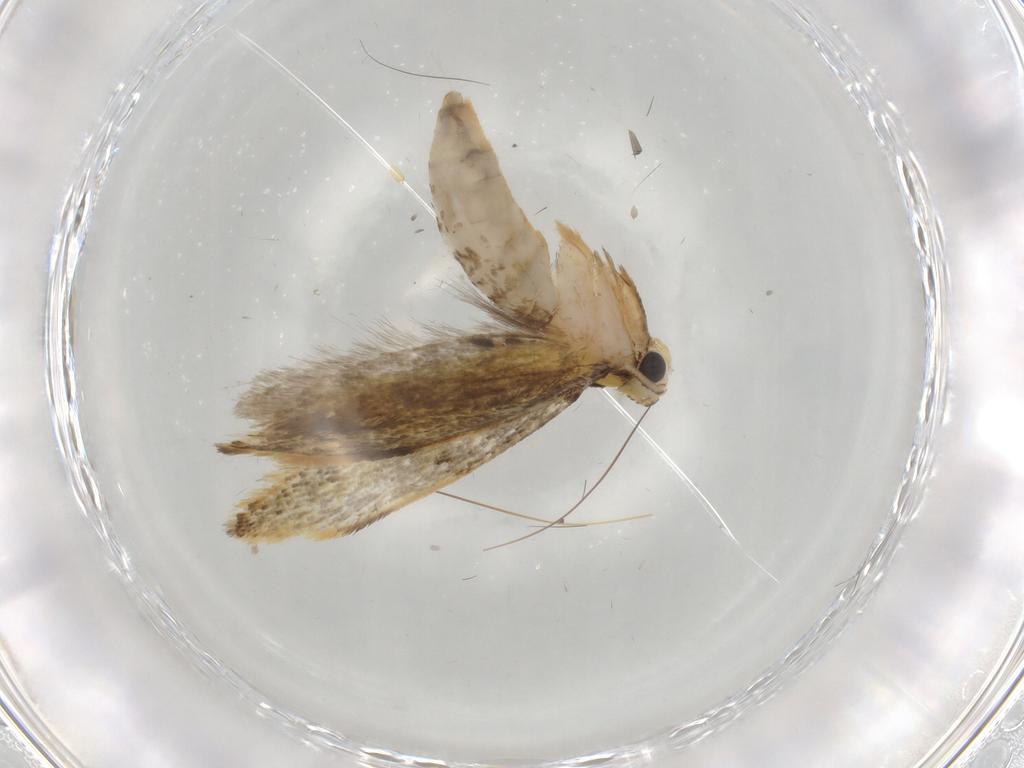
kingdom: Animalia
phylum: Arthropoda
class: Insecta
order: Lepidoptera
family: Tineidae
